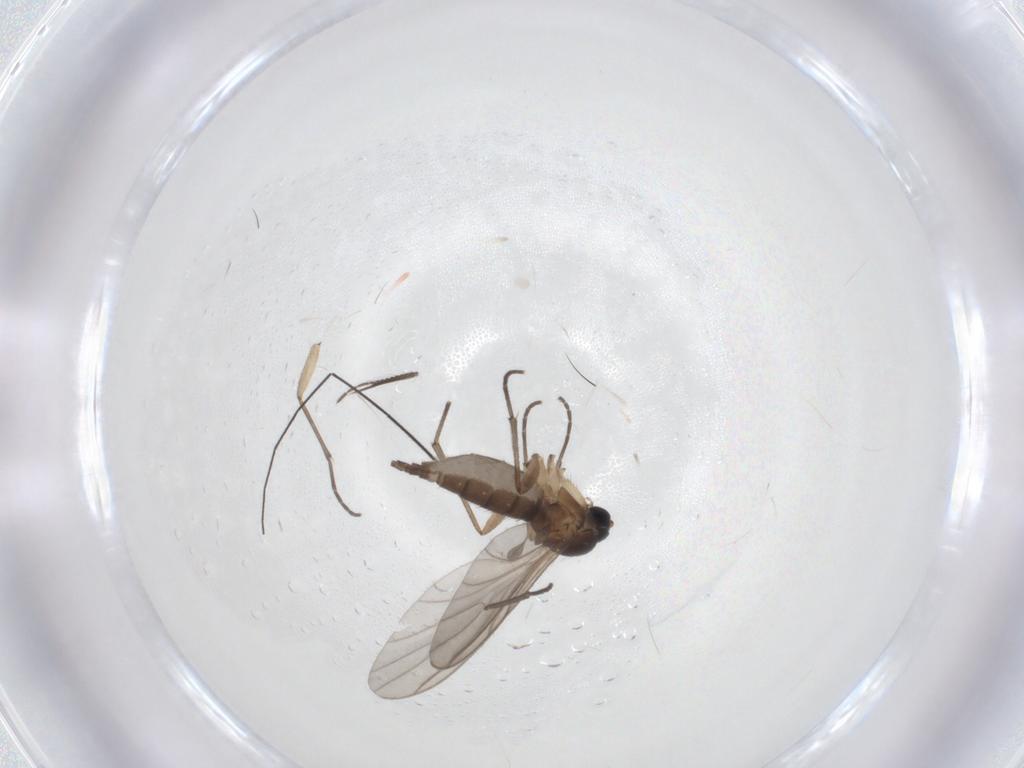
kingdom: Animalia
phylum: Arthropoda
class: Insecta
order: Diptera
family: Sciaridae
